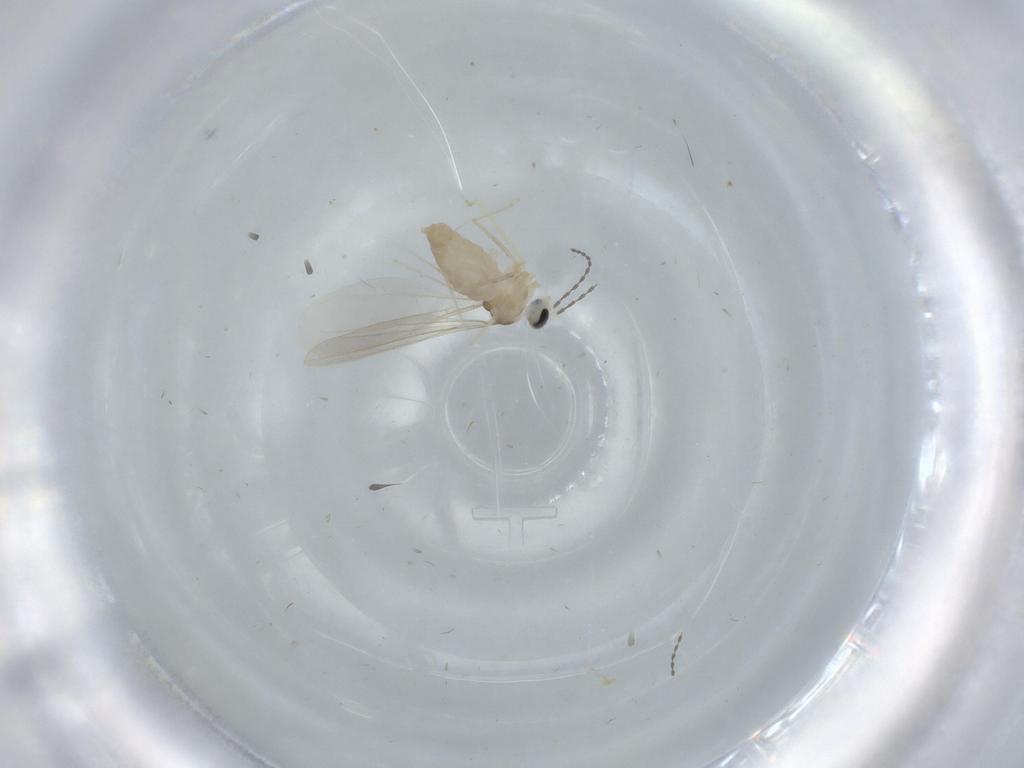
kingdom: Animalia
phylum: Arthropoda
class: Insecta
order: Diptera
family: Cecidomyiidae
